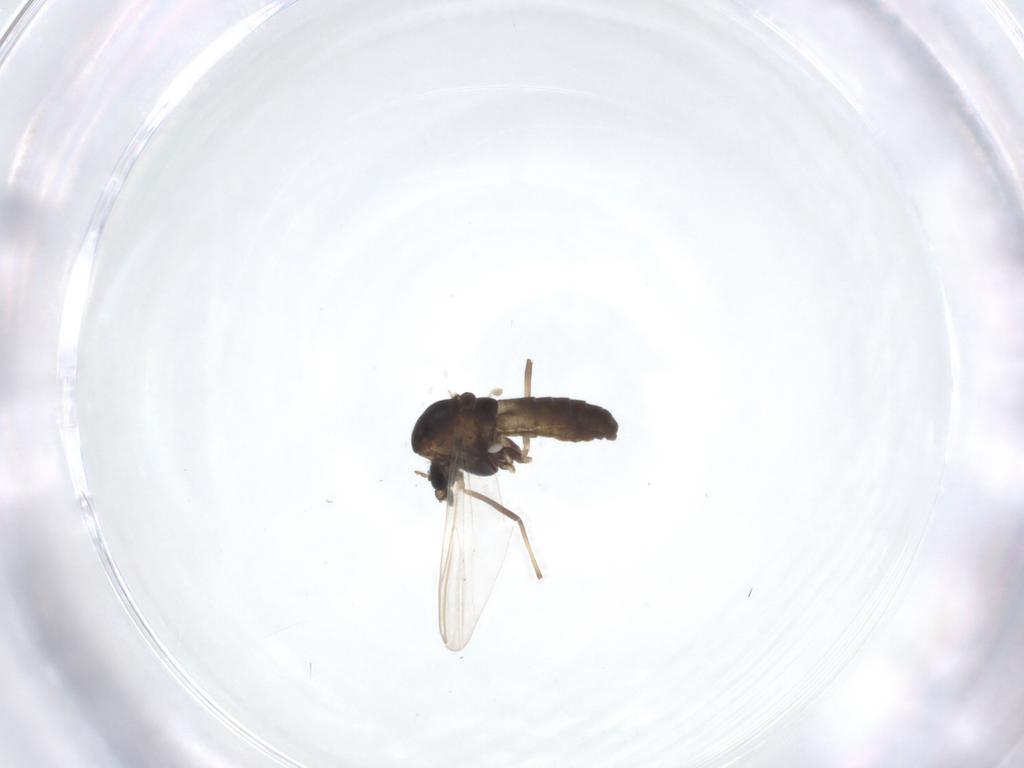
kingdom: Animalia
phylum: Arthropoda
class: Insecta
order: Diptera
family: Chironomidae
